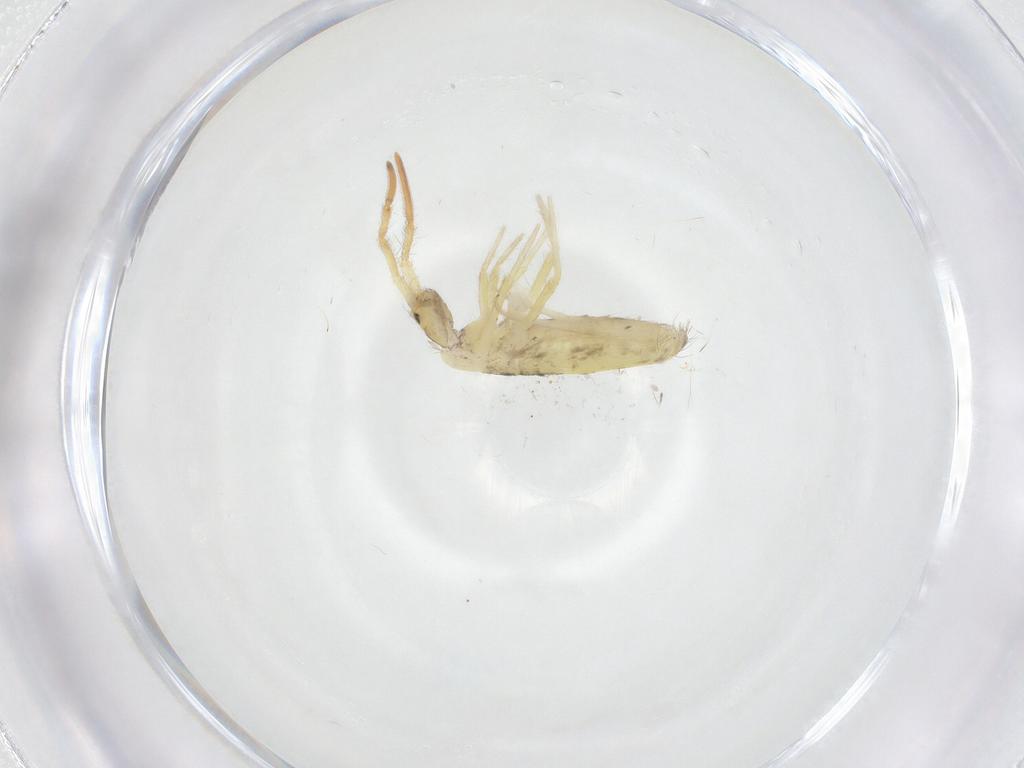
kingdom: Animalia
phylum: Arthropoda
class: Collembola
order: Entomobryomorpha
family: Entomobryidae
